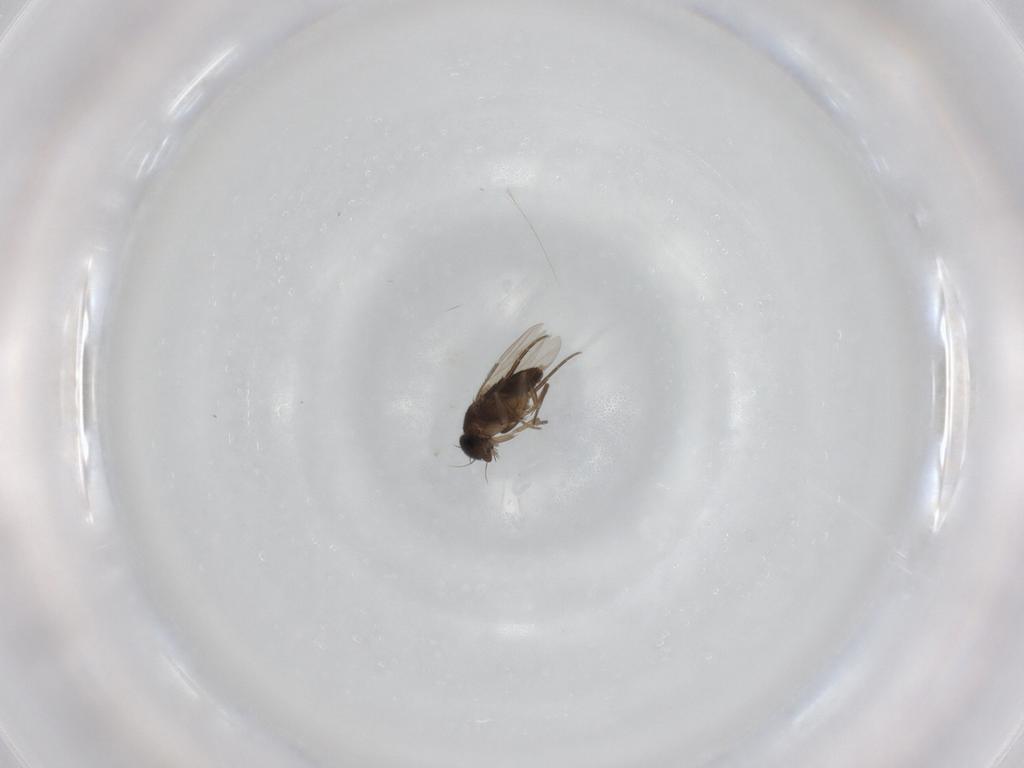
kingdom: Animalia
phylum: Arthropoda
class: Insecta
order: Diptera
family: Phoridae
